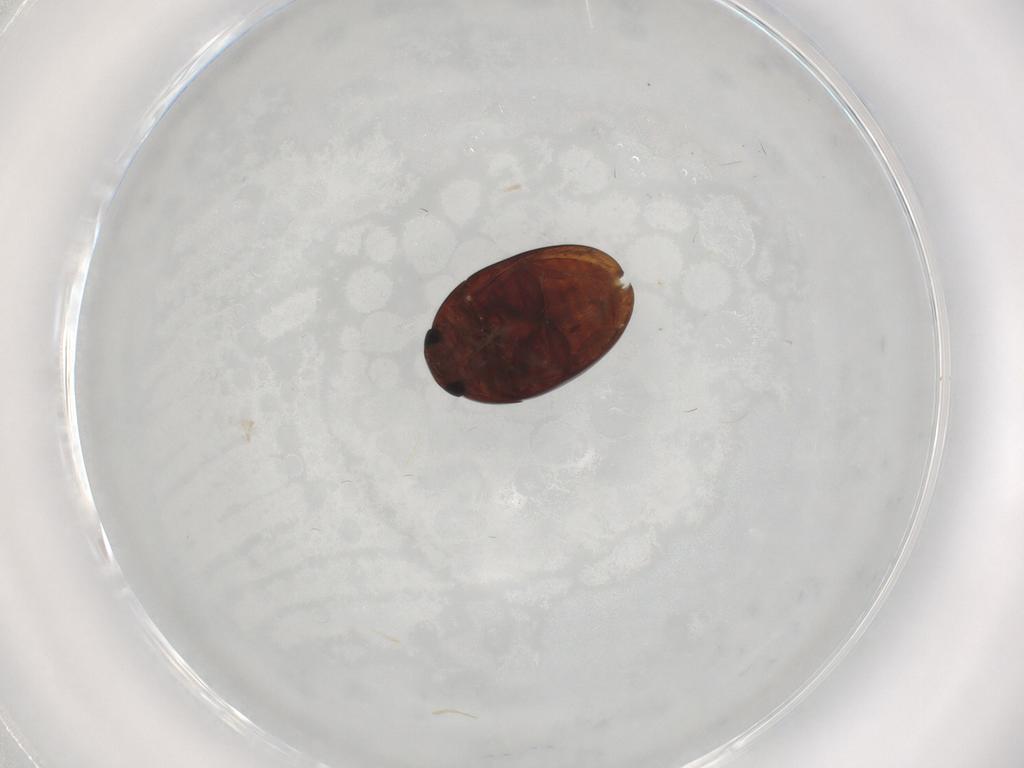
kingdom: Animalia
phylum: Arthropoda
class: Insecta
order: Coleoptera
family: Phalacridae
